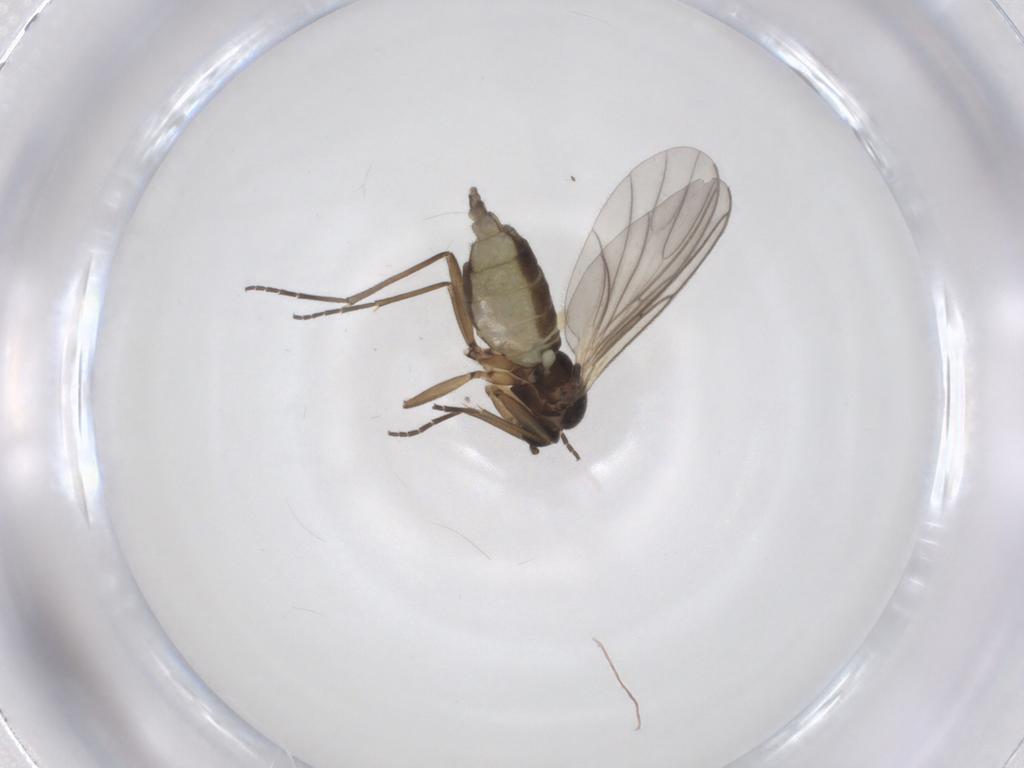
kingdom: Animalia
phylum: Arthropoda
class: Insecta
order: Diptera
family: Chironomidae
